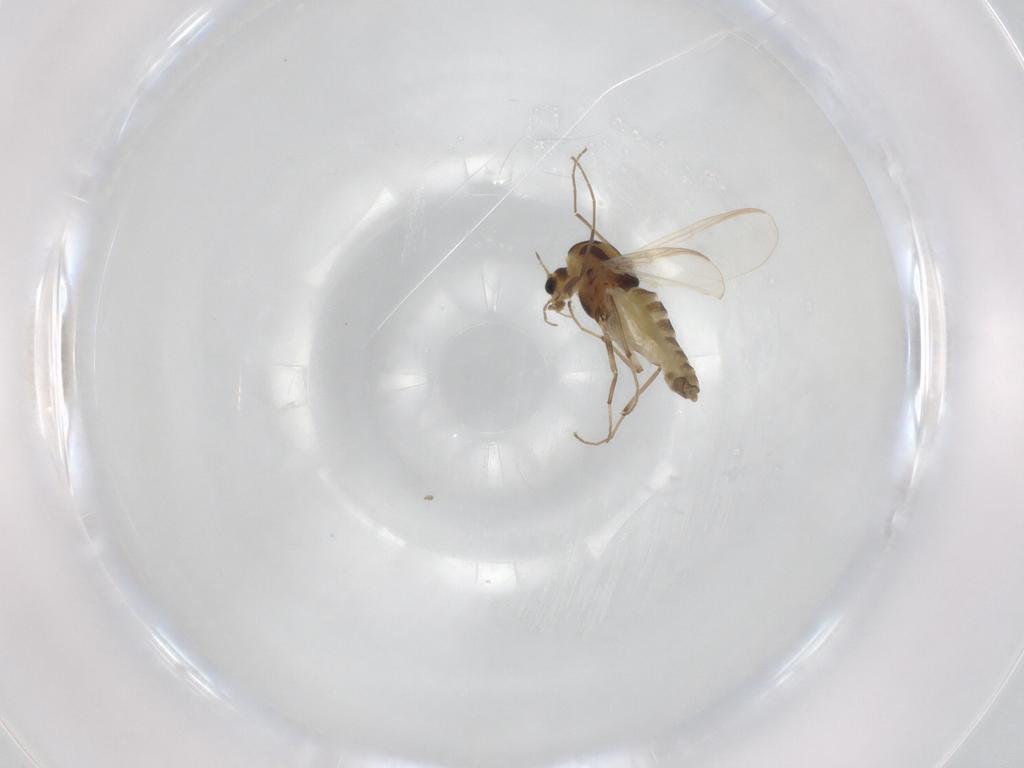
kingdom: Animalia
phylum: Arthropoda
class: Insecta
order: Diptera
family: Chironomidae
